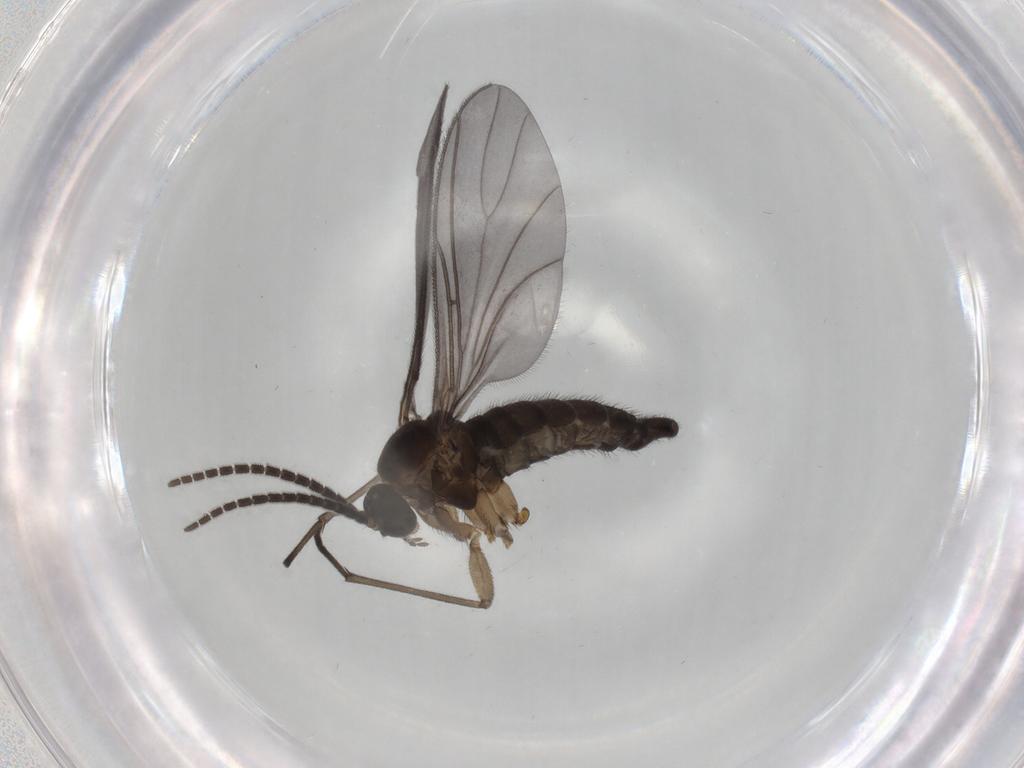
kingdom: Animalia
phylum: Arthropoda
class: Insecta
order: Diptera
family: Sciaridae
